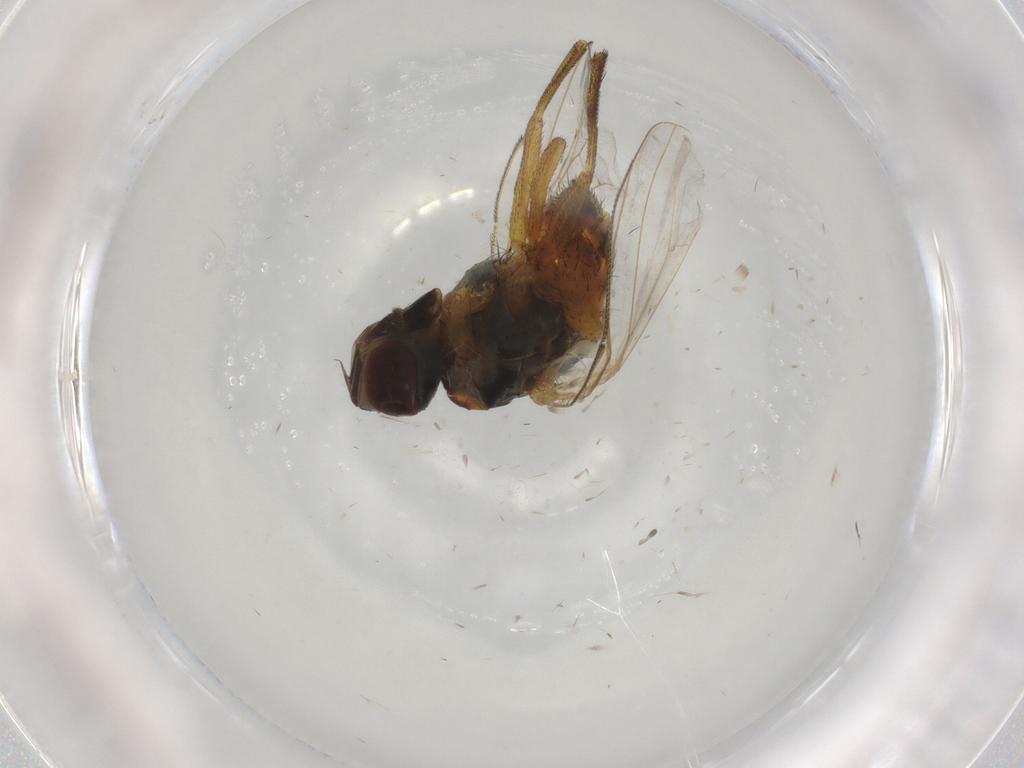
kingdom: Animalia
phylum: Arthropoda
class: Insecta
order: Diptera
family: Muscidae
